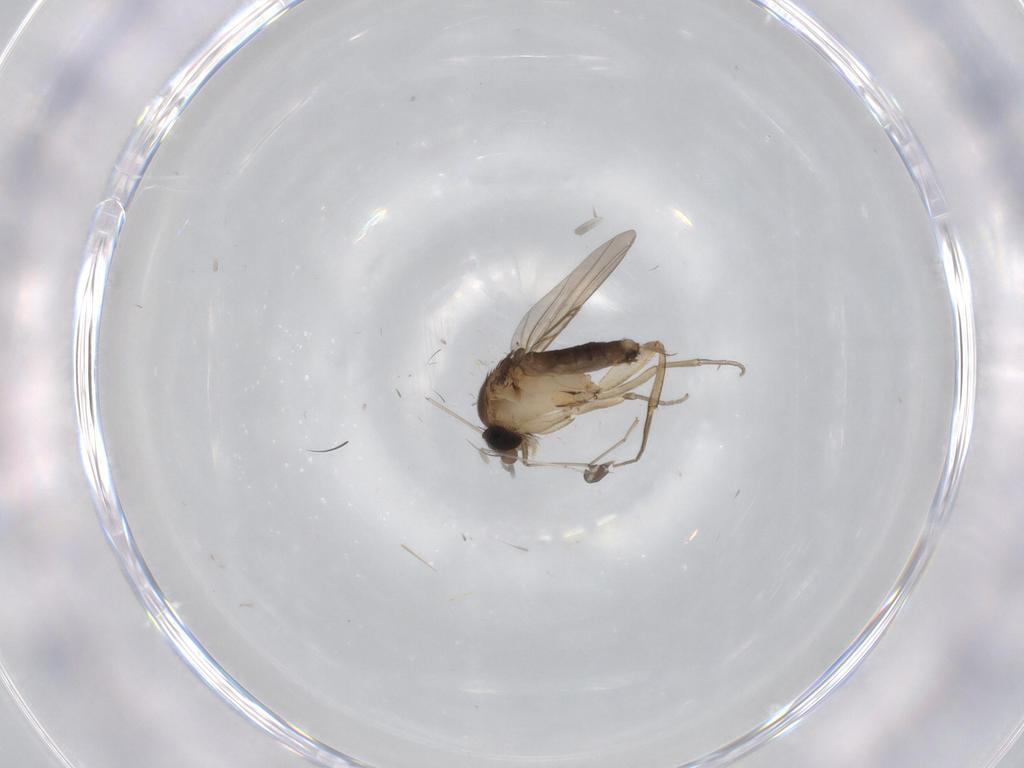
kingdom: Animalia
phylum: Arthropoda
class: Insecta
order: Diptera
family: Sciaridae
